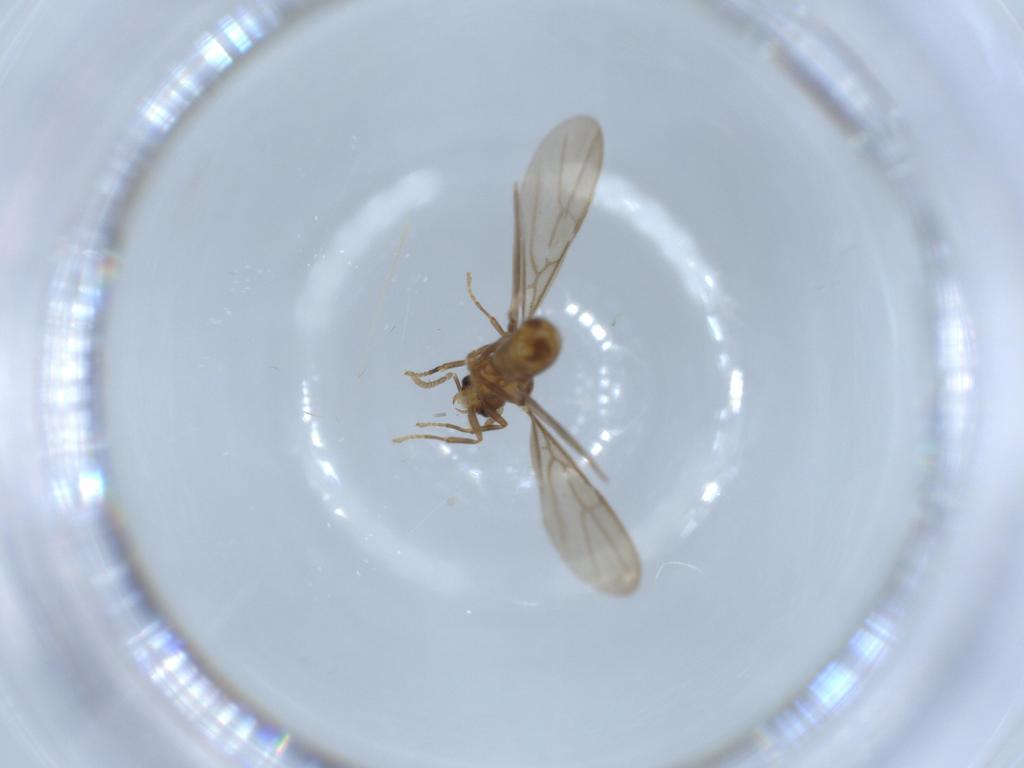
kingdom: Animalia
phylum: Arthropoda
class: Insecta
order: Hymenoptera
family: Formicidae
